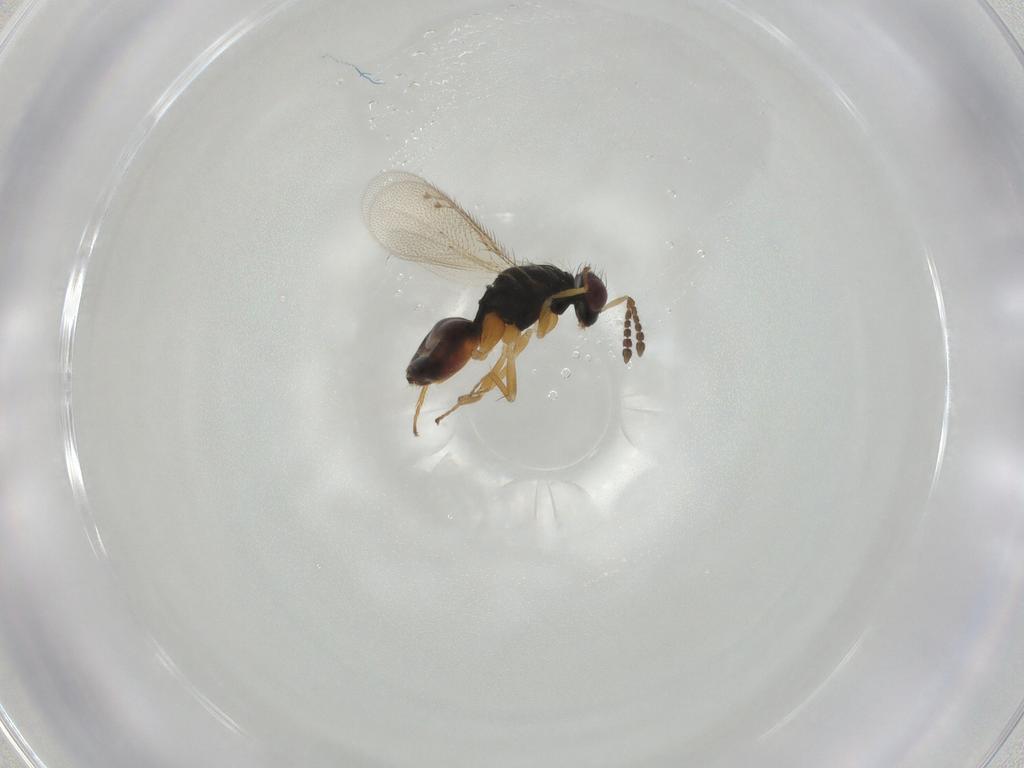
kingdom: Animalia
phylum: Arthropoda
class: Insecta
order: Hymenoptera
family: Eulophidae
